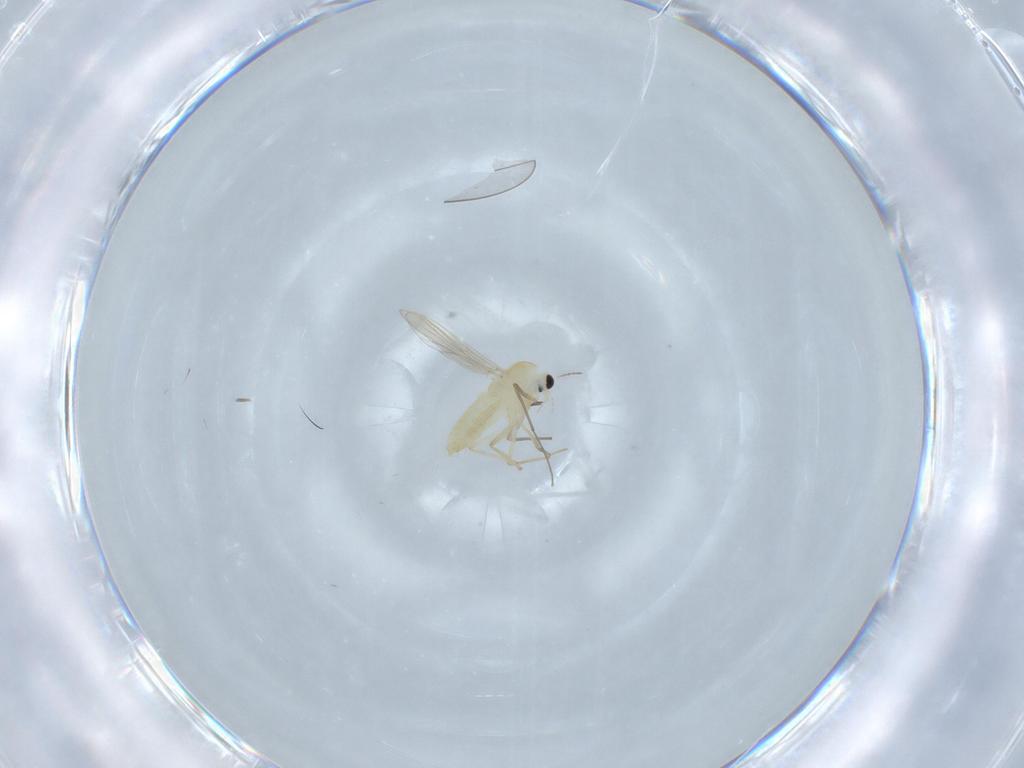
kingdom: Animalia
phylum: Arthropoda
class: Insecta
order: Diptera
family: Chironomidae
